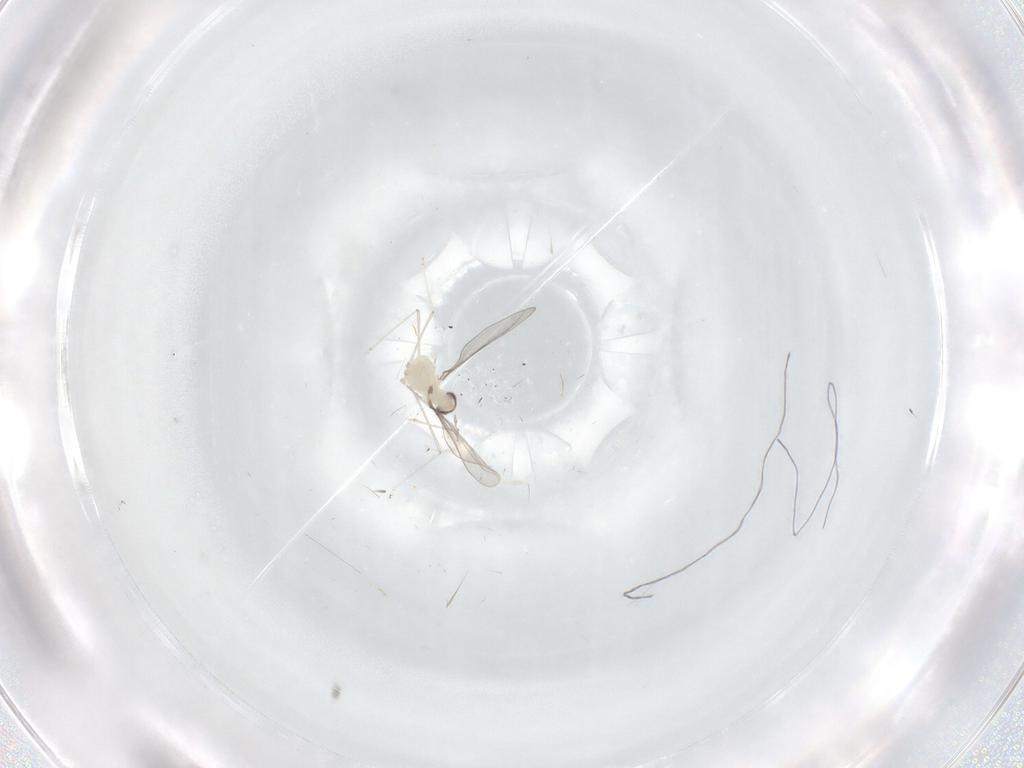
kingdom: Animalia
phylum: Arthropoda
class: Insecta
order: Diptera
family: Cecidomyiidae
